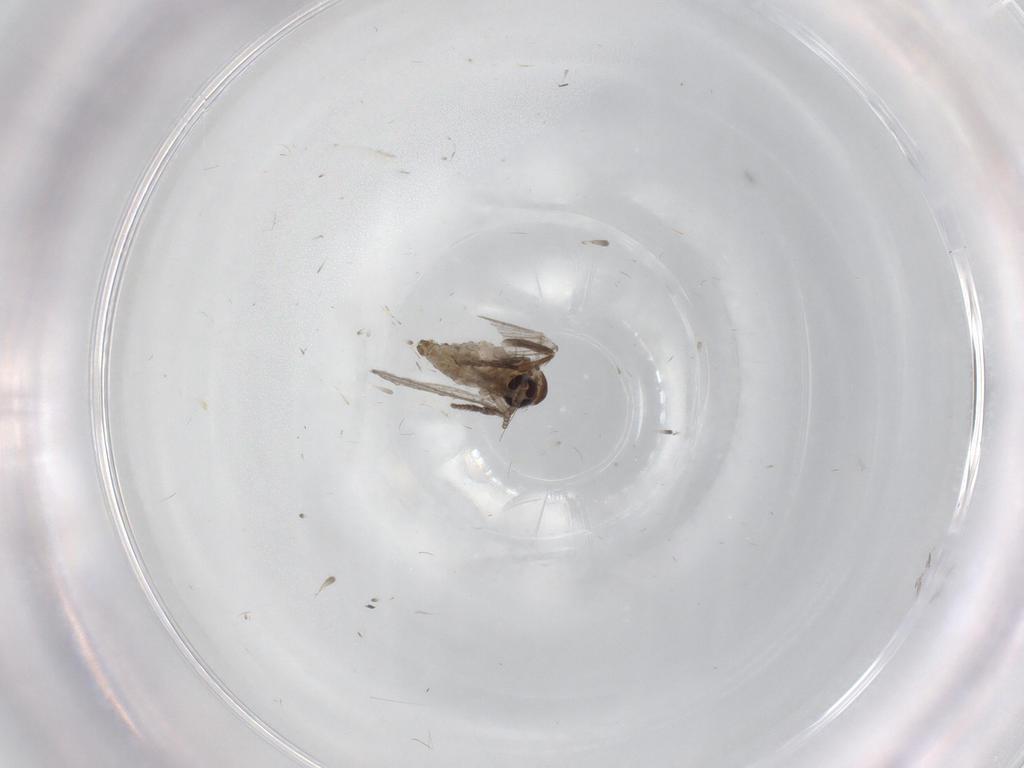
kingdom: Animalia
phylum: Arthropoda
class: Insecta
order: Diptera
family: Psychodidae
